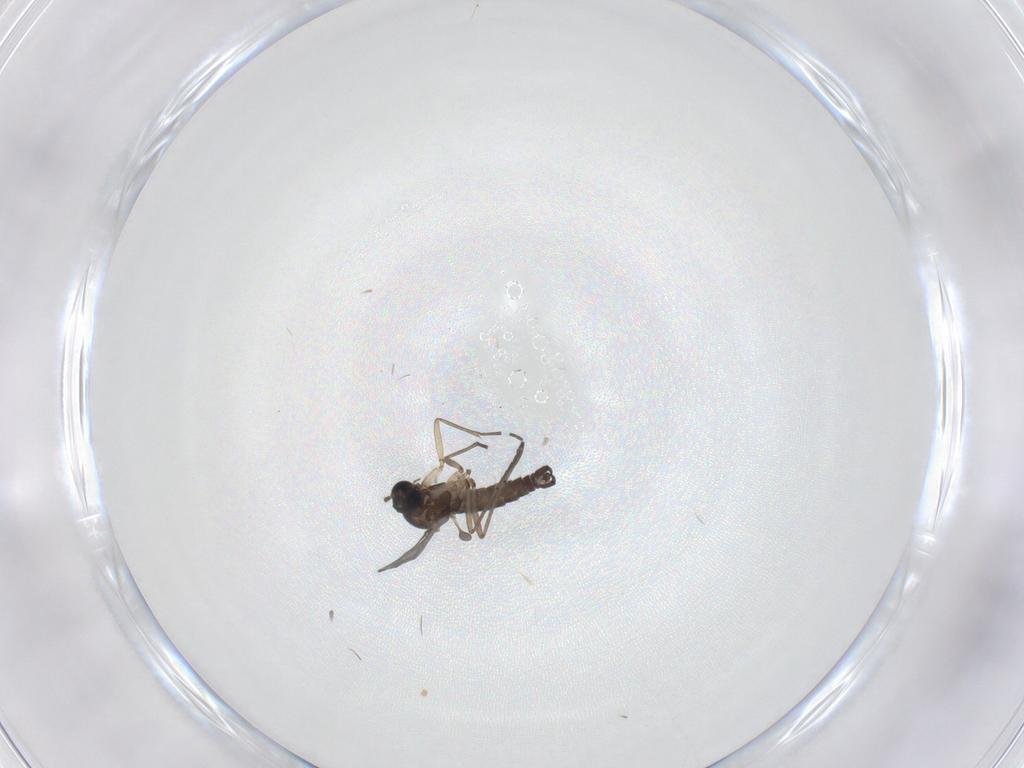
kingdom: Animalia
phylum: Arthropoda
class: Insecta
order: Diptera
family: Sciaridae
